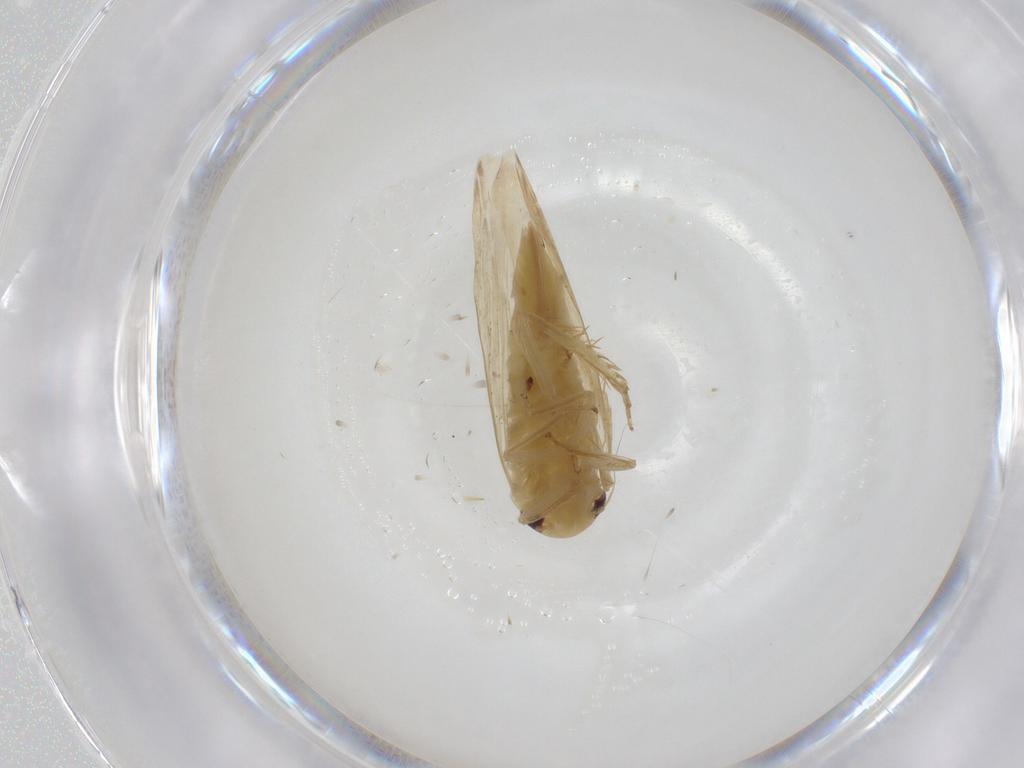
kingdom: Animalia
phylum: Arthropoda
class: Insecta
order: Hemiptera
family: Cicadellidae
